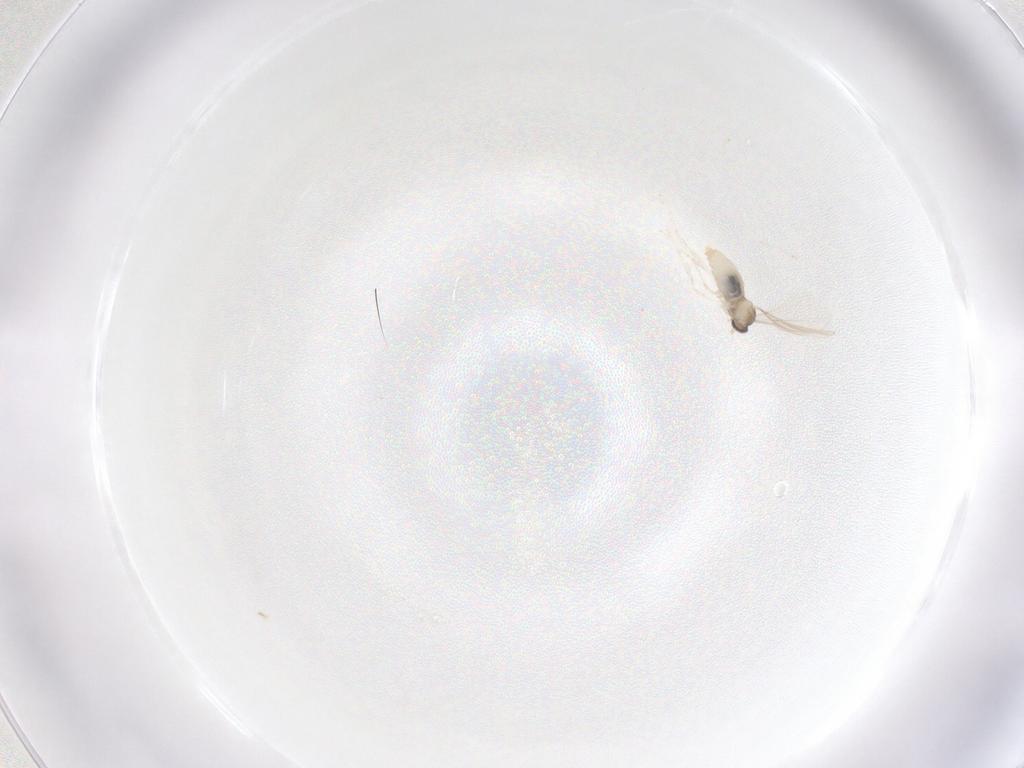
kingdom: Animalia
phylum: Arthropoda
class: Insecta
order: Diptera
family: Cecidomyiidae
